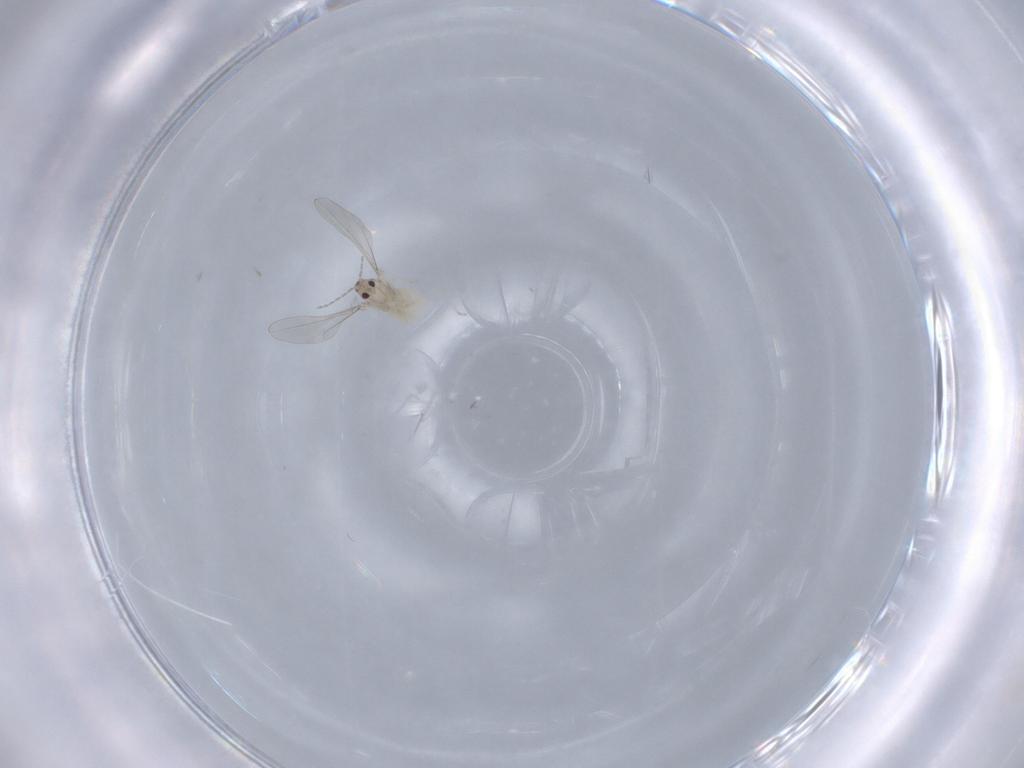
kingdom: Animalia
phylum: Arthropoda
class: Insecta
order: Diptera
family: Cecidomyiidae
